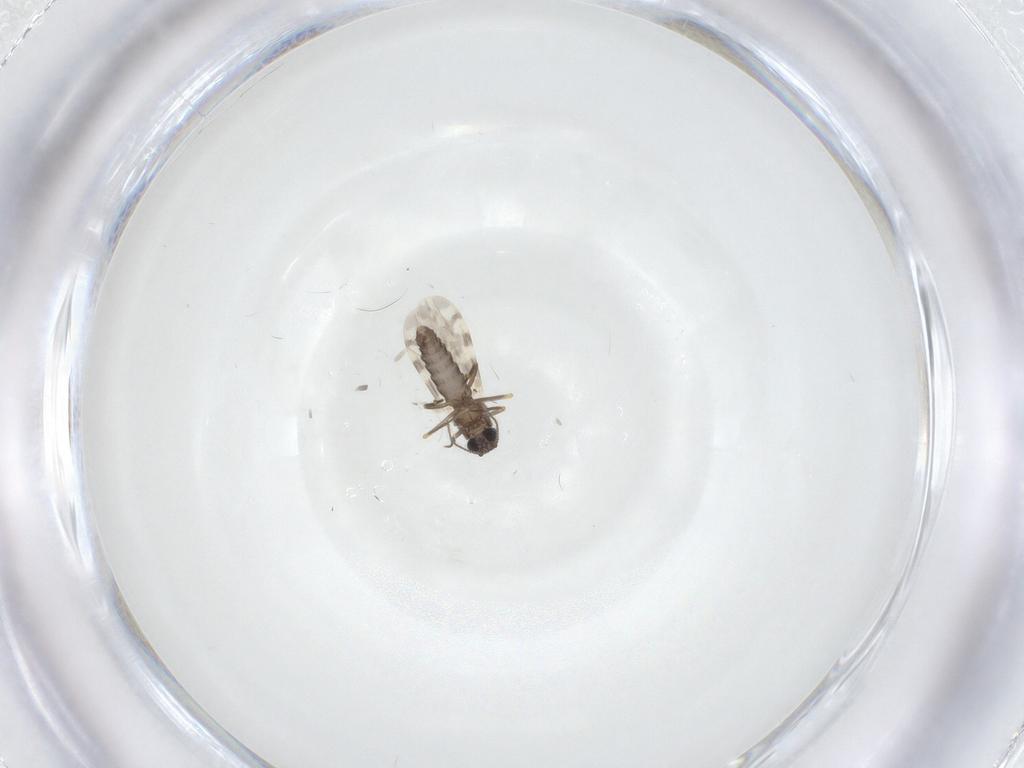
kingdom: Animalia
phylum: Arthropoda
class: Insecta
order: Diptera
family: Ceratopogonidae
